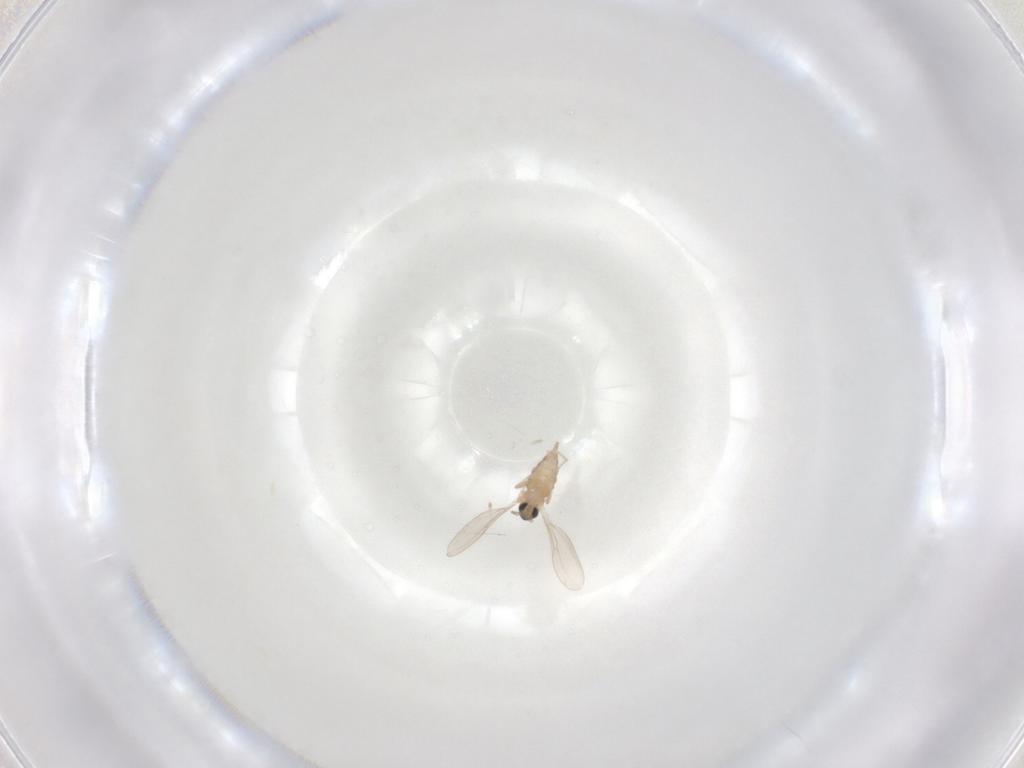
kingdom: Animalia
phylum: Arthropoda
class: Insecta
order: Diptera
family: Cecidomyiidae
